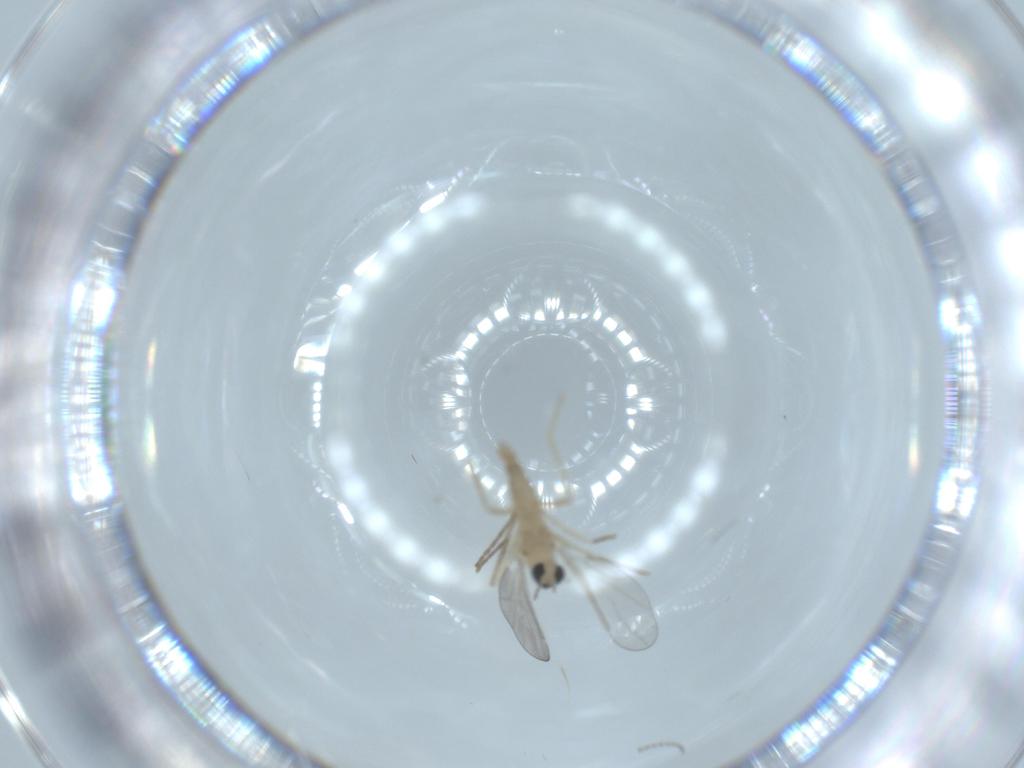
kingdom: Animalia
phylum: Arthropoda
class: Insecta
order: Diptera
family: Cecidomyiidae
